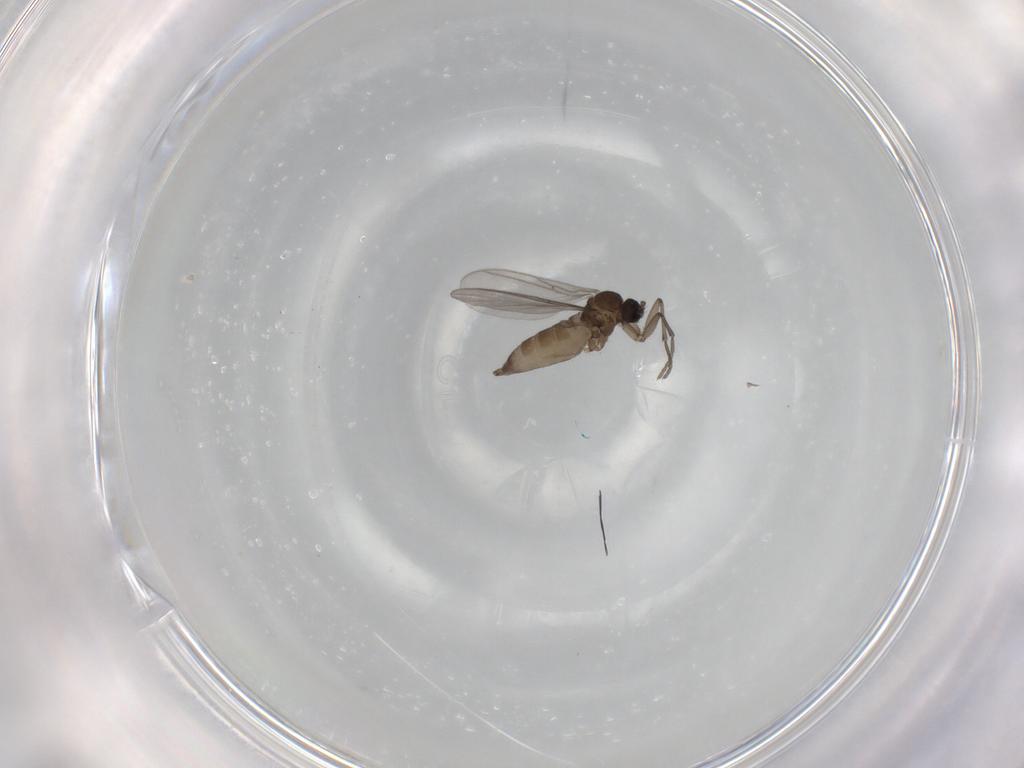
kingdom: Animalia
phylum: Arthropoda
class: Insecta
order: Diptera
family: Sciaridae
